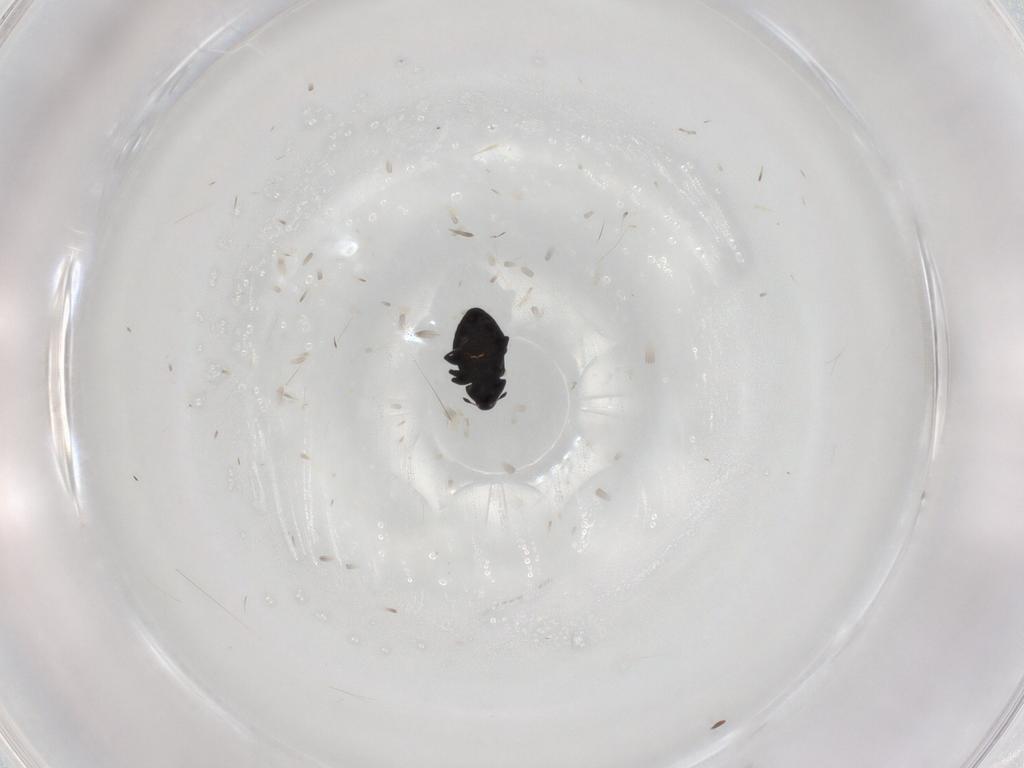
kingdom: Animalia
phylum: Arthropoda
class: Insecta
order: Coleoptera
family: Curculionidae
